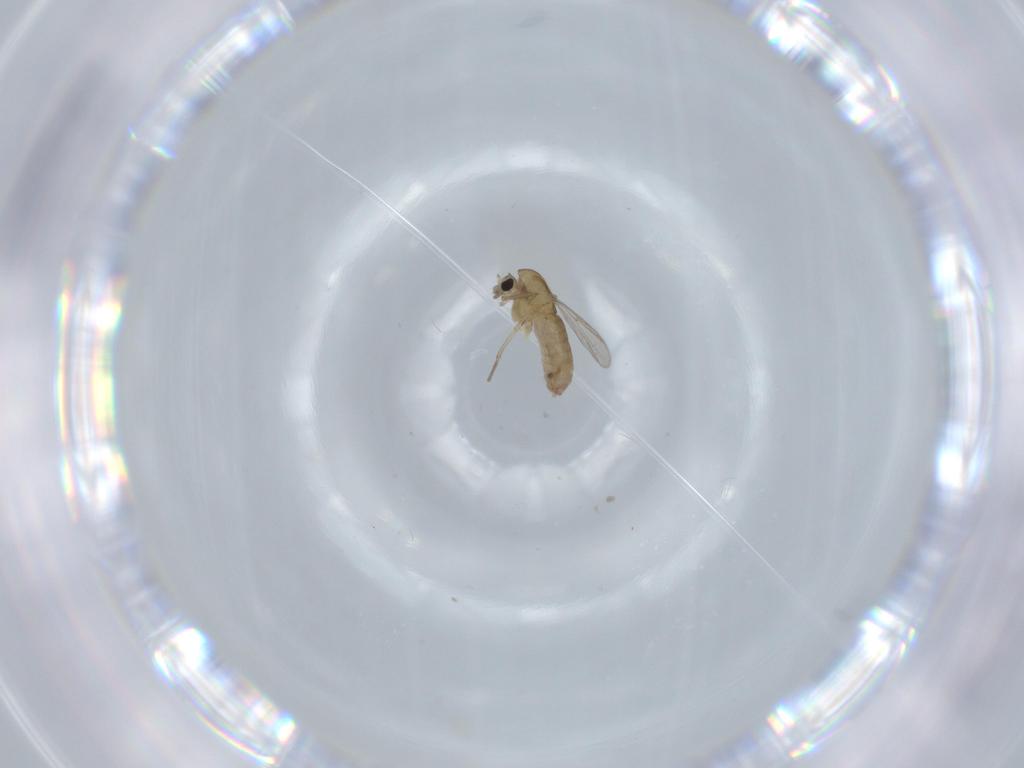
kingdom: Animalia
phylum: Arthropoda
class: Insecta
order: Diptera
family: Chironomidae
